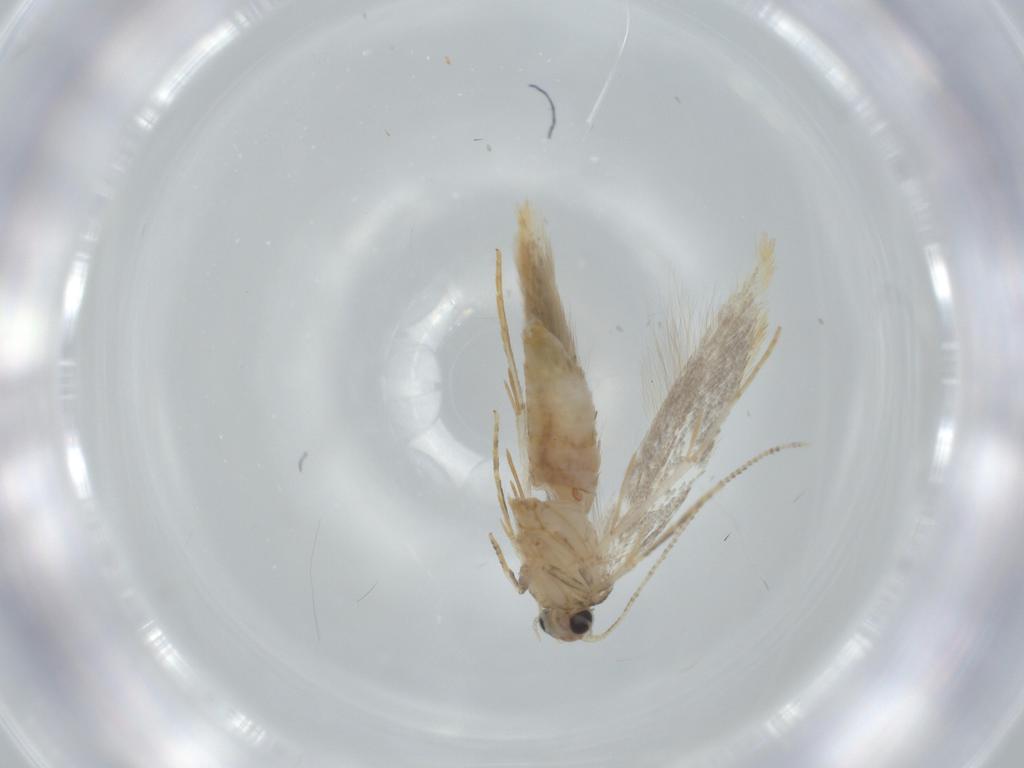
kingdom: Animalia
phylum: Arthropoda
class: Insecta
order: Lepidoptera
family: Tineidae
